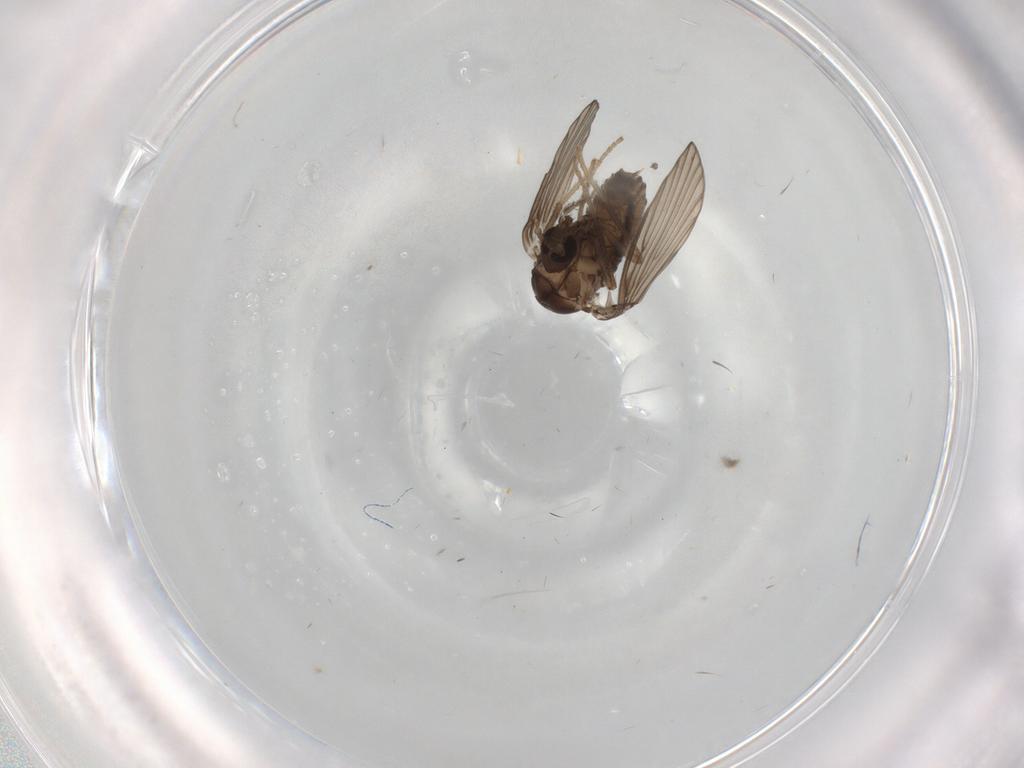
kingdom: Animalia
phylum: Arthropoda
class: Insecta
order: Diptera
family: Psychodidae
